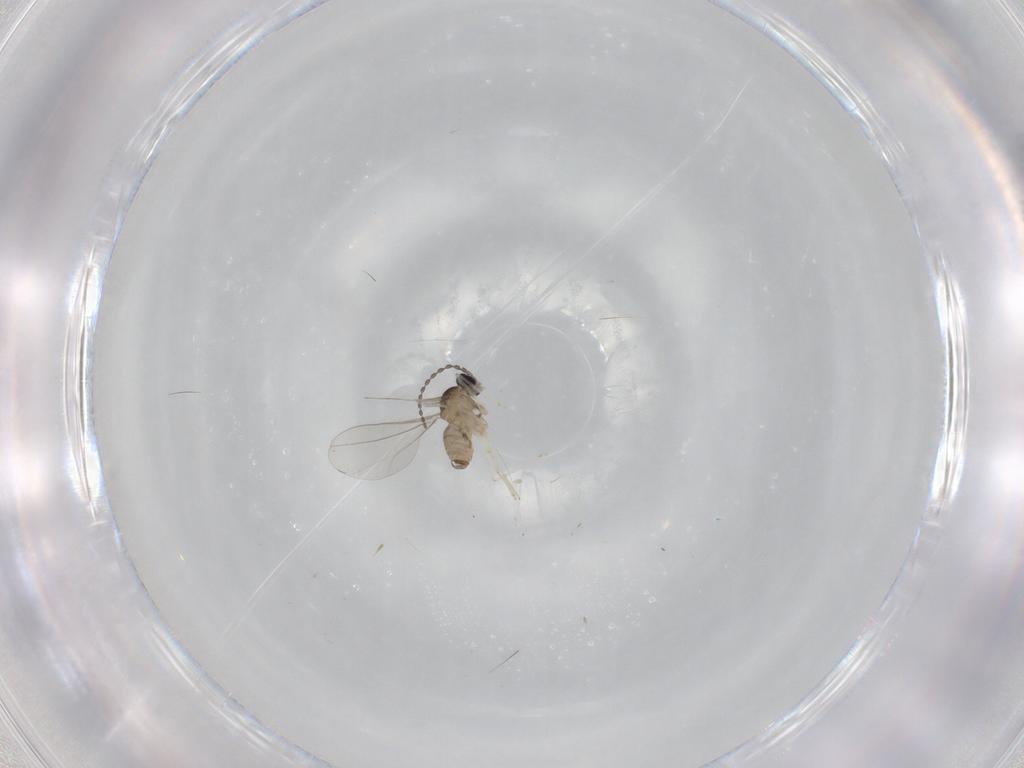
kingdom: Animalia
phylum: Arthropoda
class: Insecta
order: Diptera
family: Cecidomyiidae
